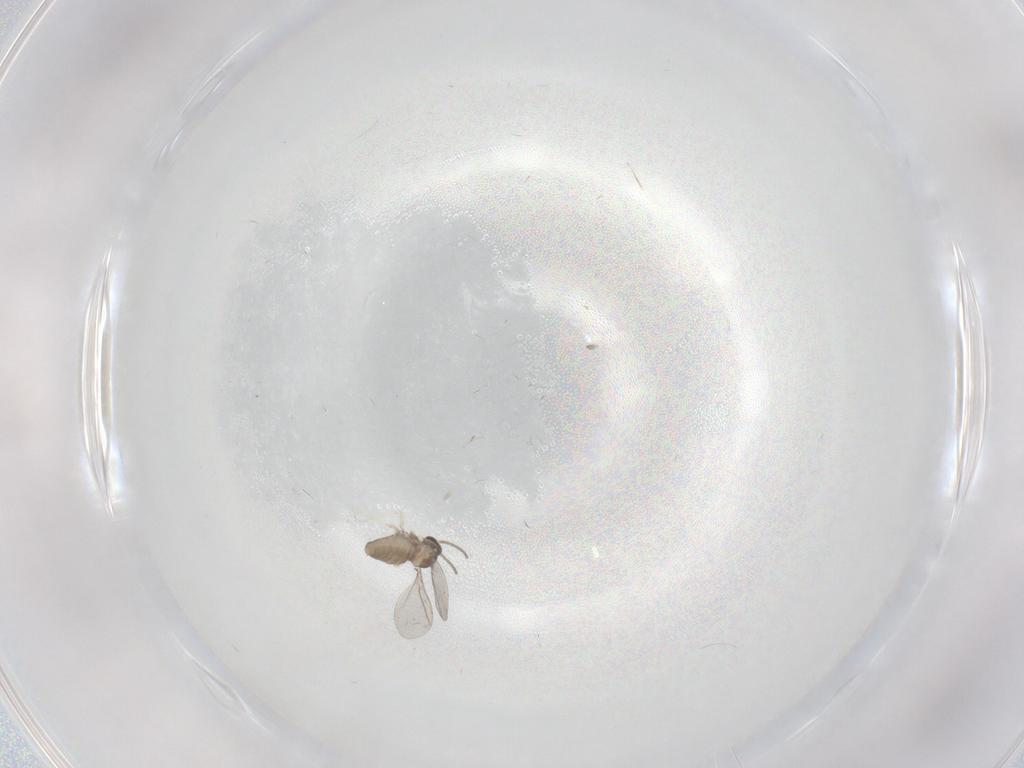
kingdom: Animalia
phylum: Arthropoda
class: Insecta
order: Diptera
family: Cecidomyiidae
